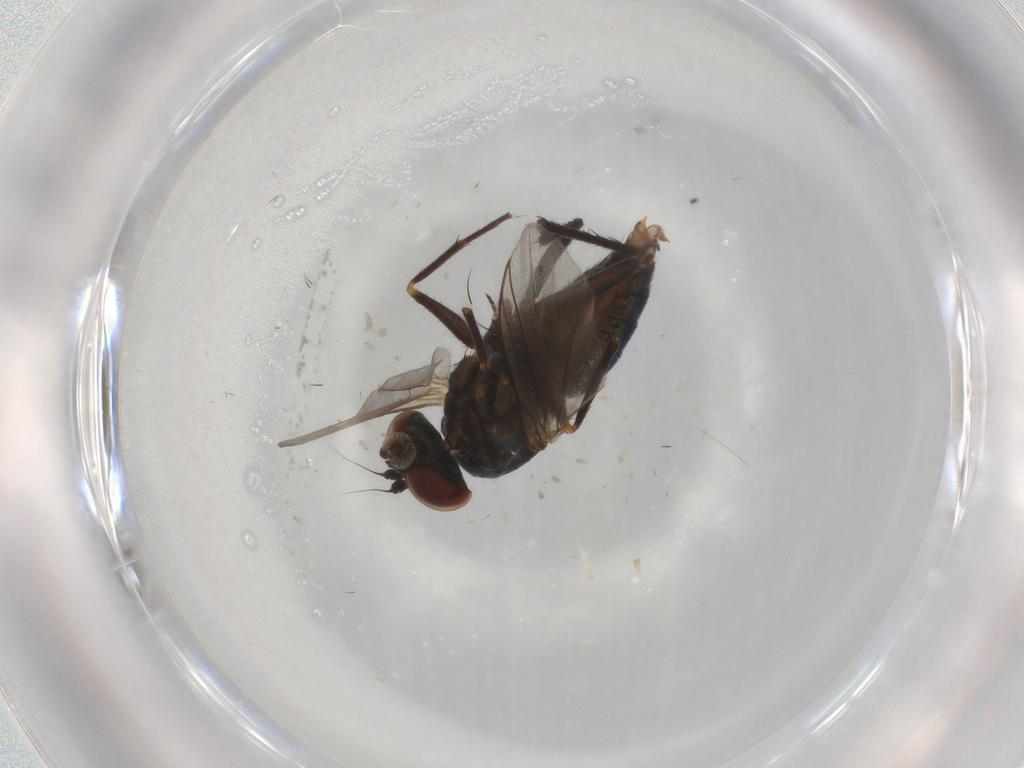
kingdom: Animalia
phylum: Arthropoda
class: Insecta
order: Diptera
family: Dolichopodidae
